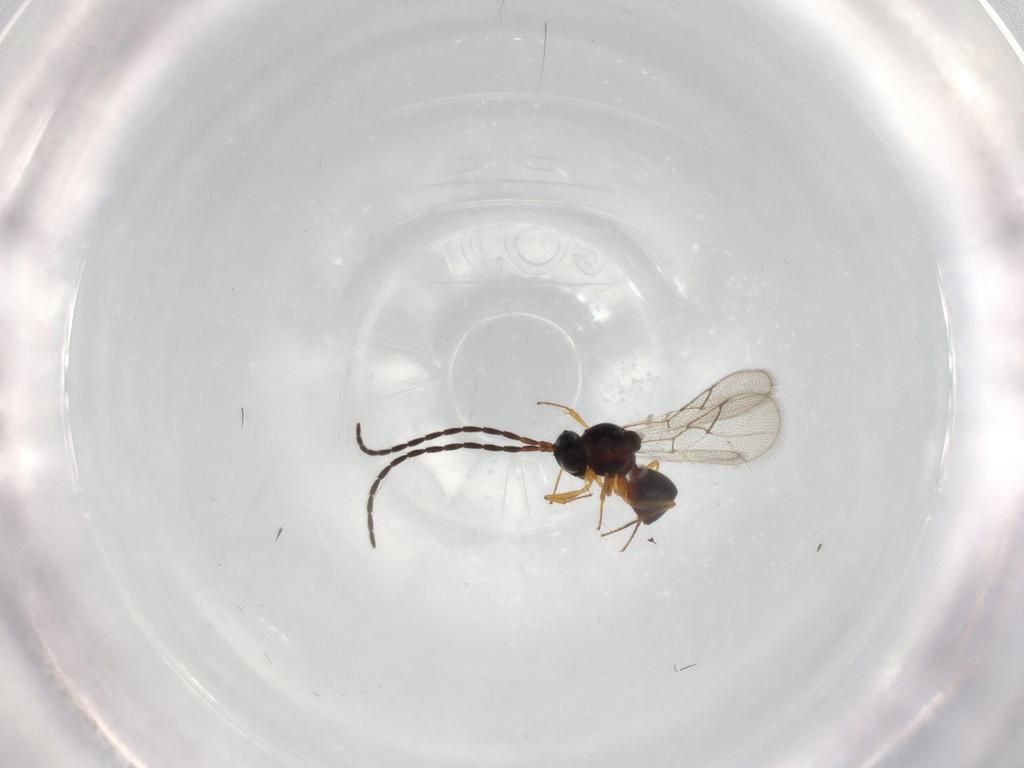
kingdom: Animalia
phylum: Arthropoda
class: Insecta
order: Hymenoptera
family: Figitidae
